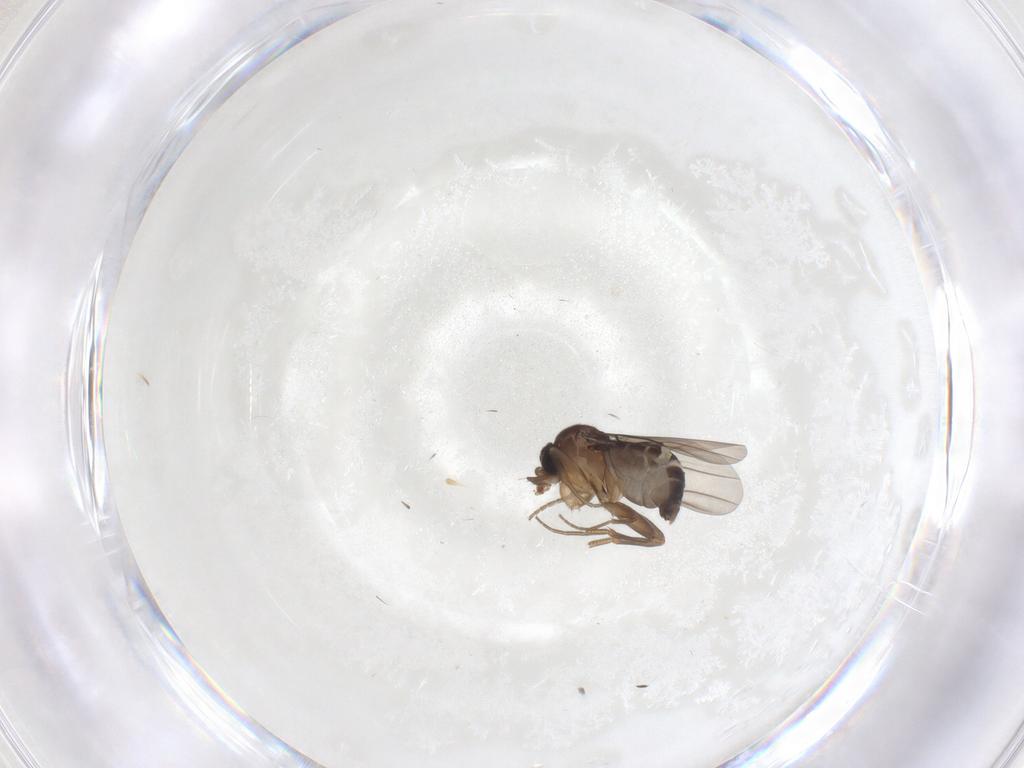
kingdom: Animalia
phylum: Arthropoda
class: Insecta
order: Diptera
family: Phoridae
